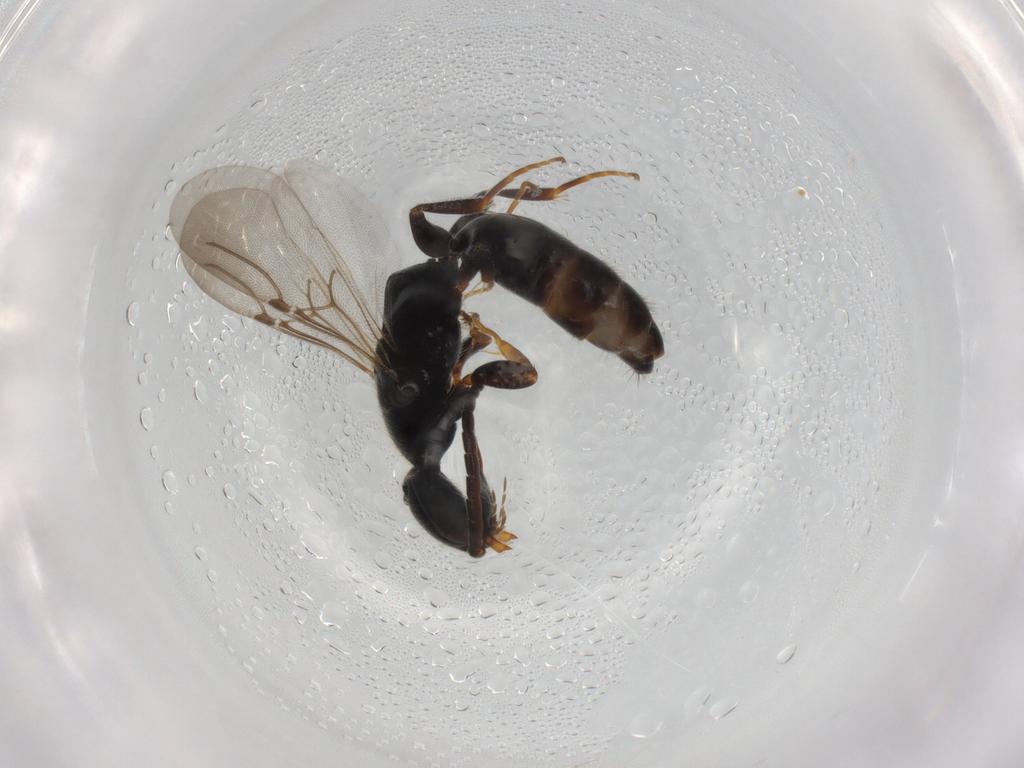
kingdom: Animalia
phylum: Arthropoda
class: Insecta
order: Hymenoptera
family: Bethylidae
